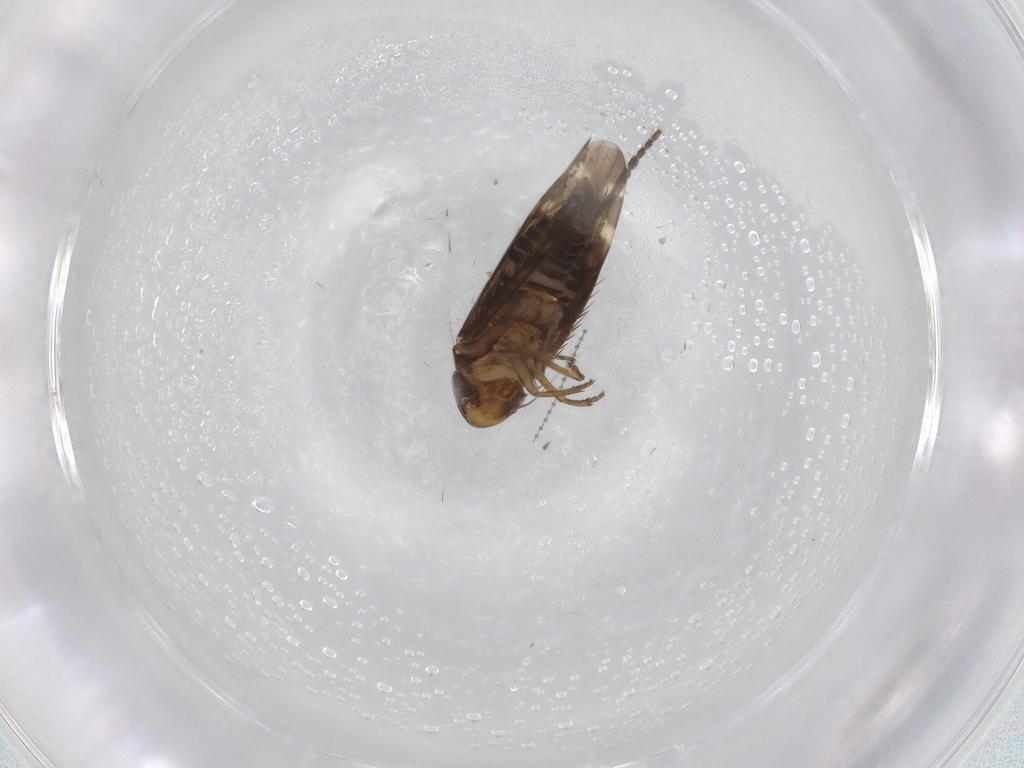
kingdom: Animalia
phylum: Arthropoda
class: Insecta
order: Hemiptera
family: Cicadellidae
